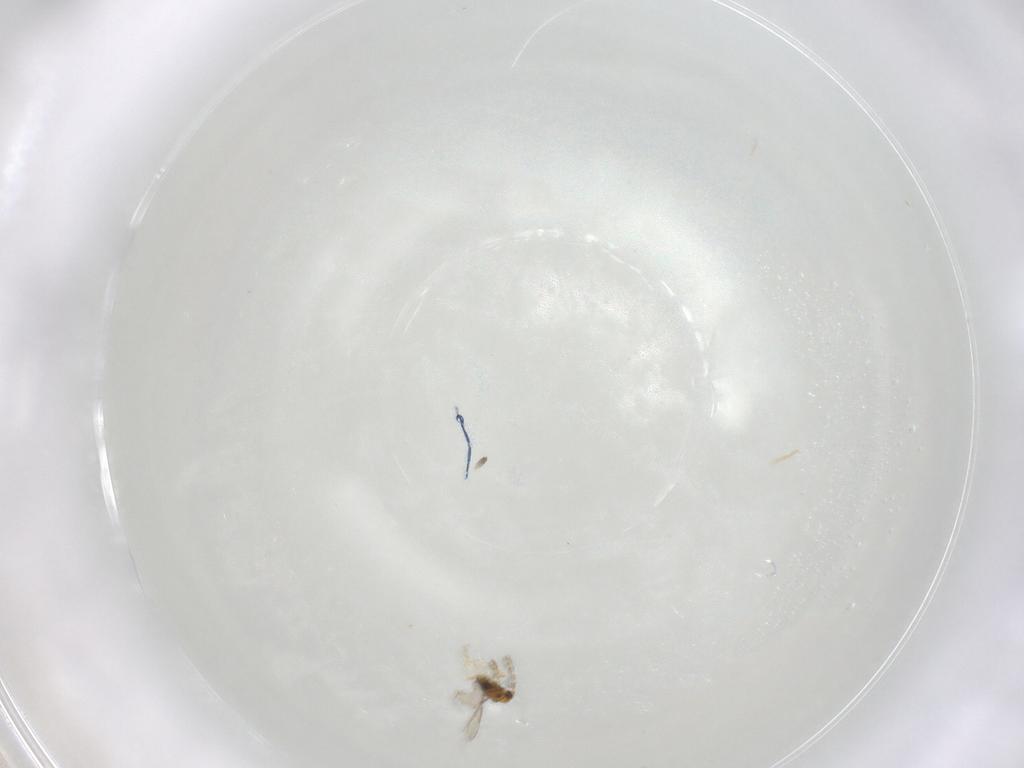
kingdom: Animalia
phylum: Arthropoda
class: Insecta
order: Hymenoptera
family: Aphelinidae
